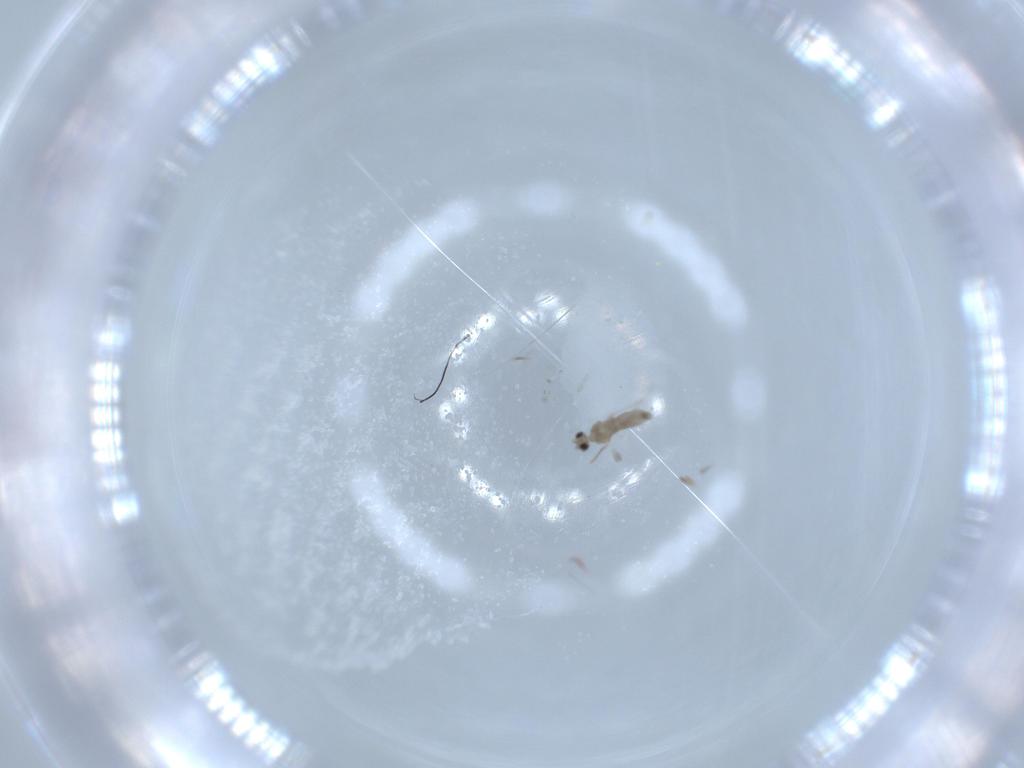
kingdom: Animalia
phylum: Arthropoda
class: Insecta
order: Diptera
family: Cecidomyiidae
